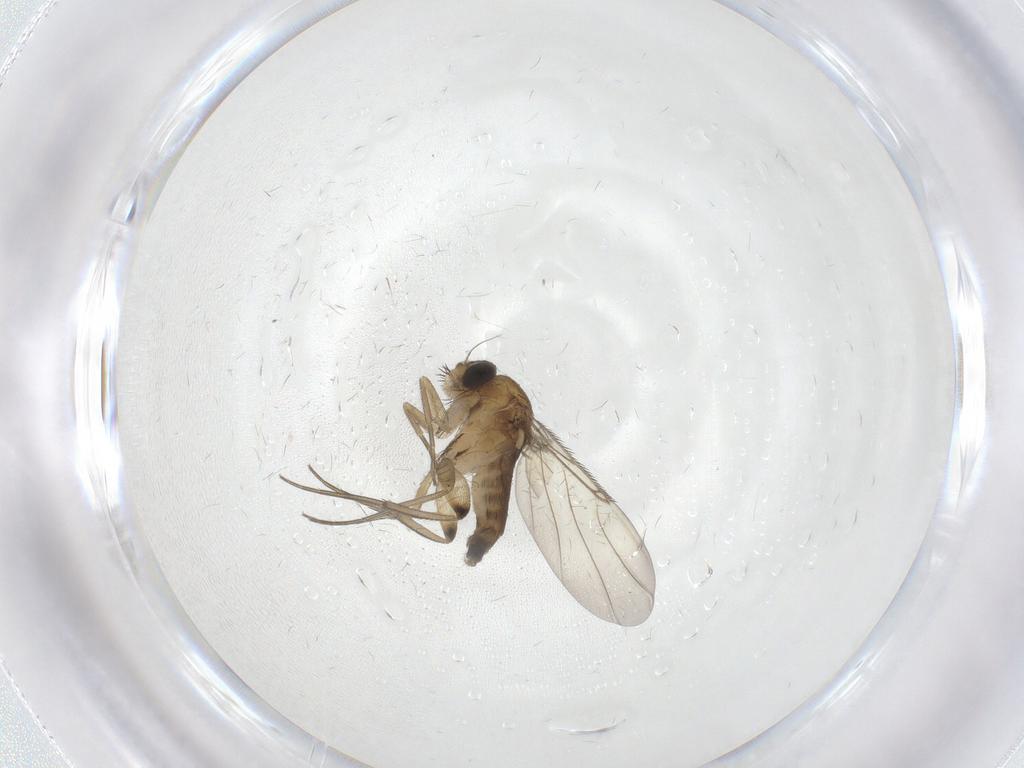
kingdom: Animalia
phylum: Arthropoda
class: Insecta
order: Diptera
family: Phoridae
